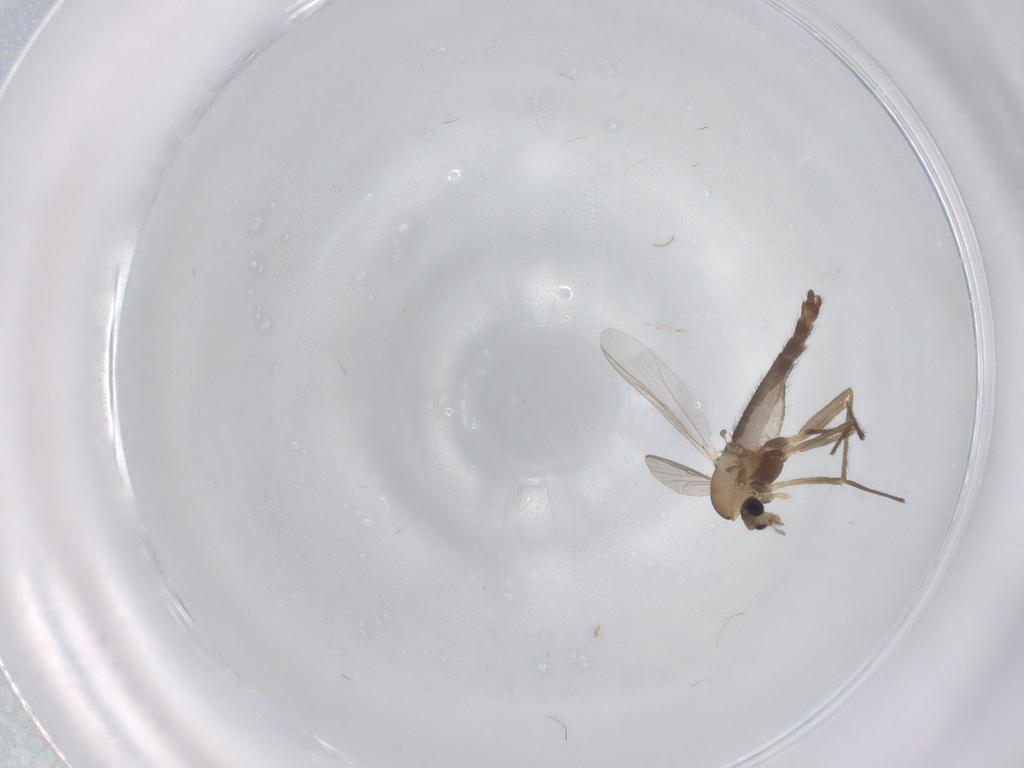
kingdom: Animalia
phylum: Arthropoda
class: Insecta
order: Diptera
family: Chironomidae
